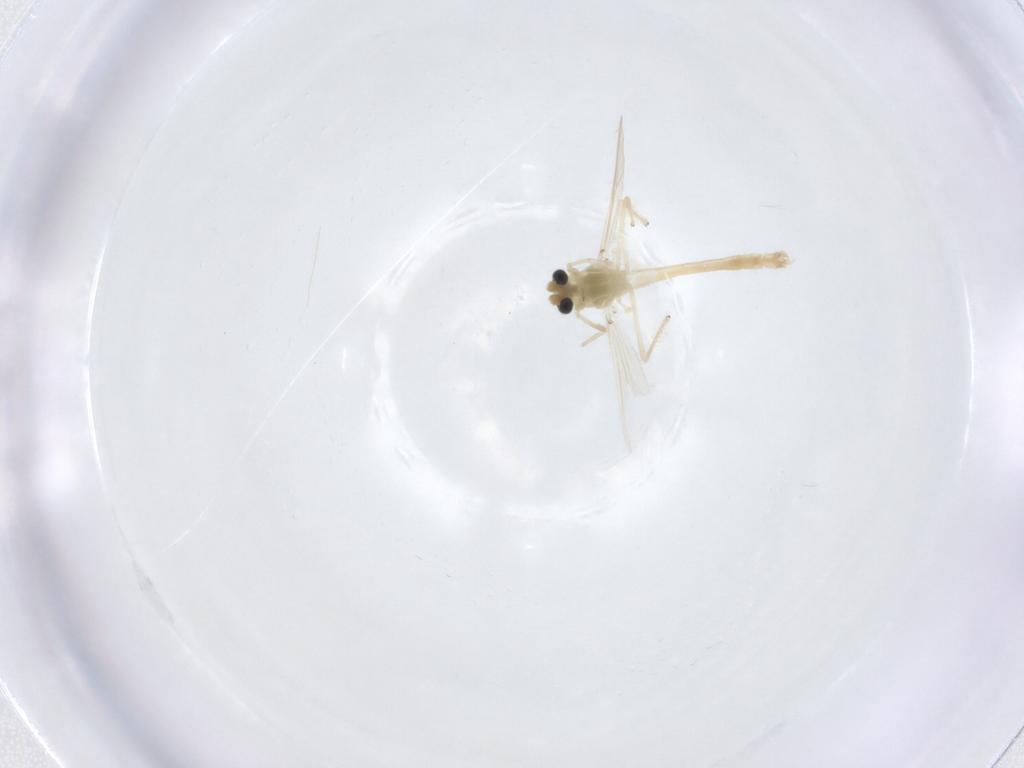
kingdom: Animalia
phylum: Arthropoda
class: Insecta
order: Diptera
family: Chironomidae
